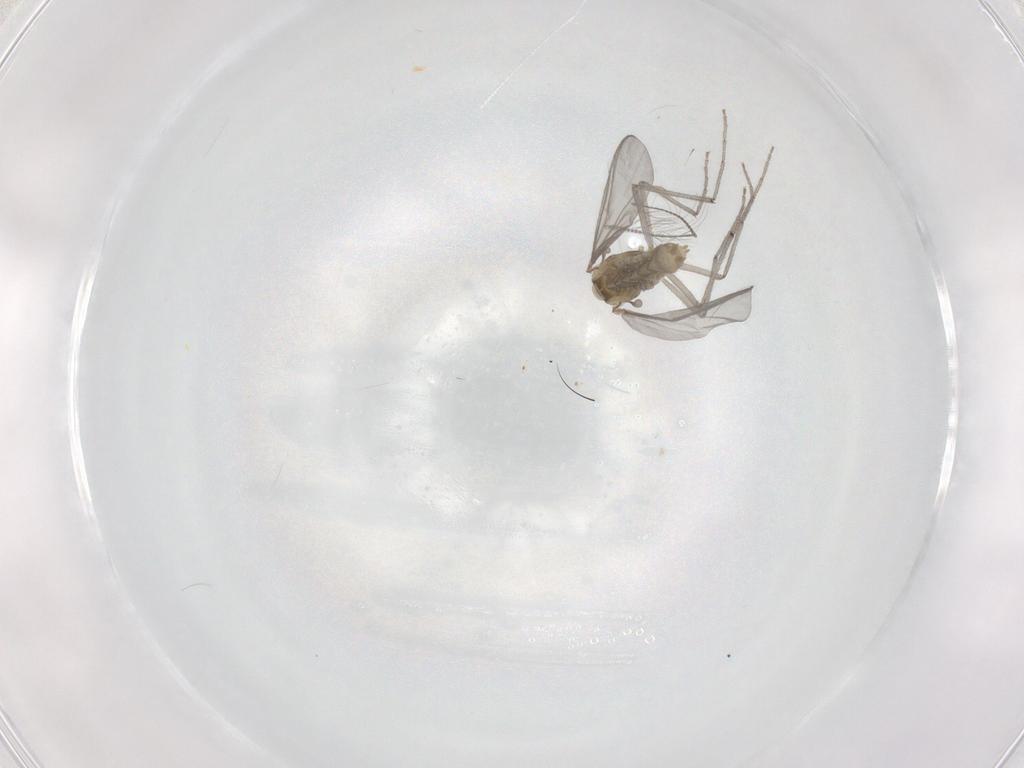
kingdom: Animalia
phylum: Arthropoda
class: Insecta
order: Diptera
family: Chironomidae
